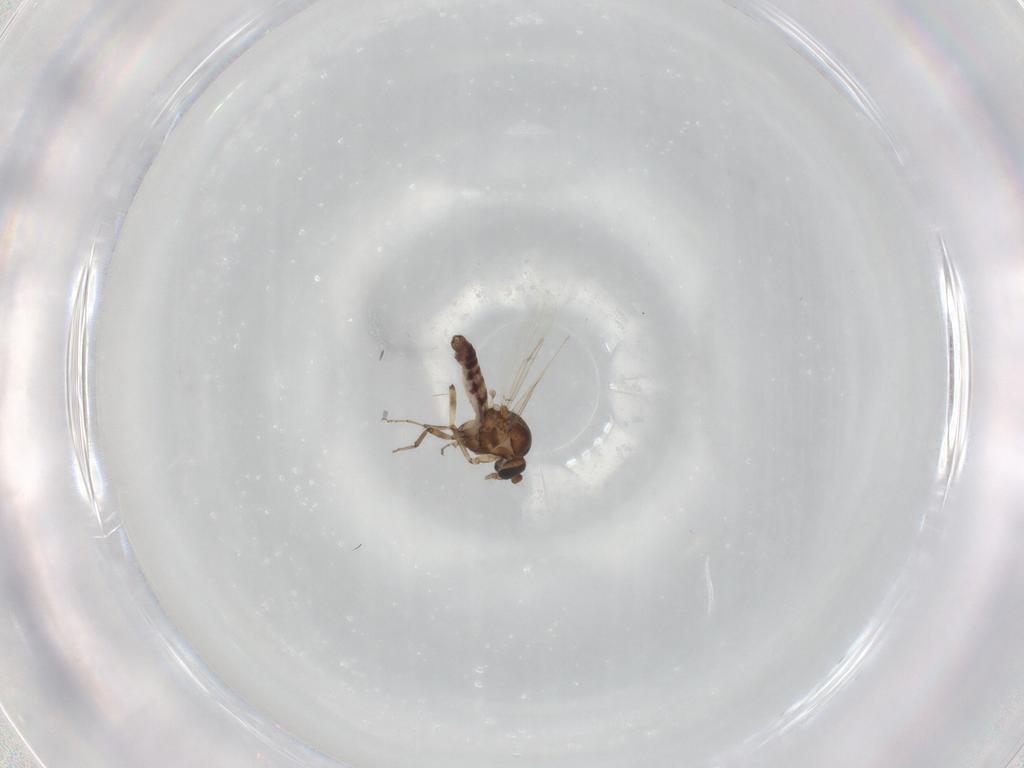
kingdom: Animalia
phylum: Arthropoda
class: Insecta
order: Diptera
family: Ceratopogonidae
